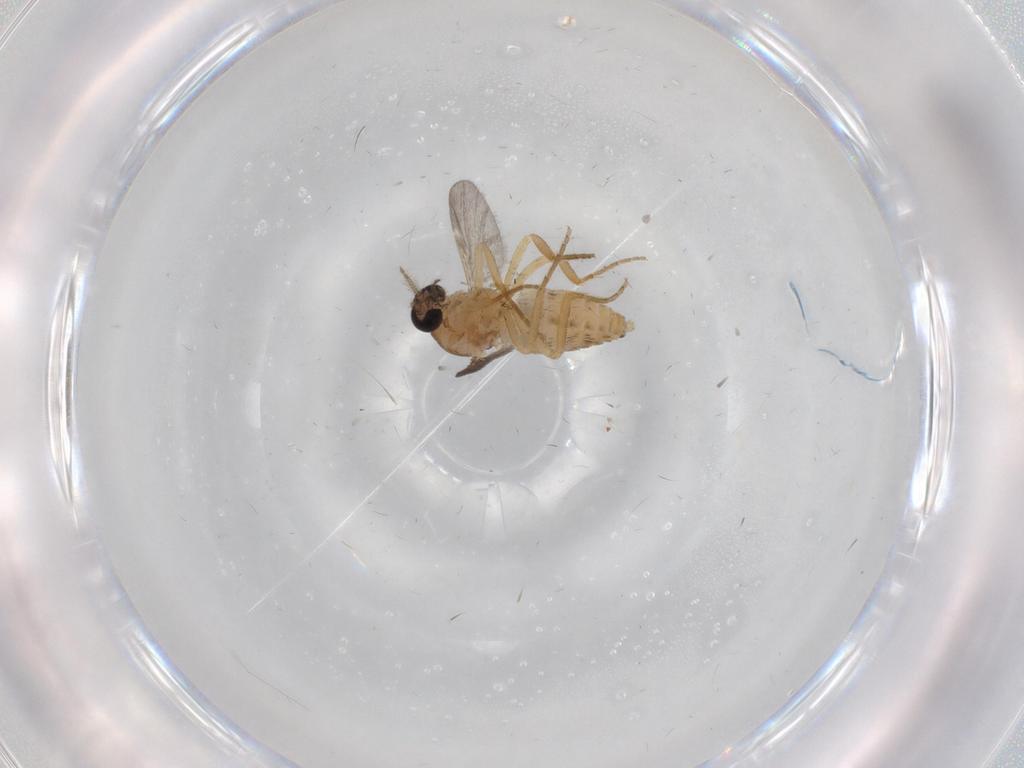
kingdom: Animalia
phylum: Arthropoda
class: Insecta
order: Diptera
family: Ceratopogonidae
